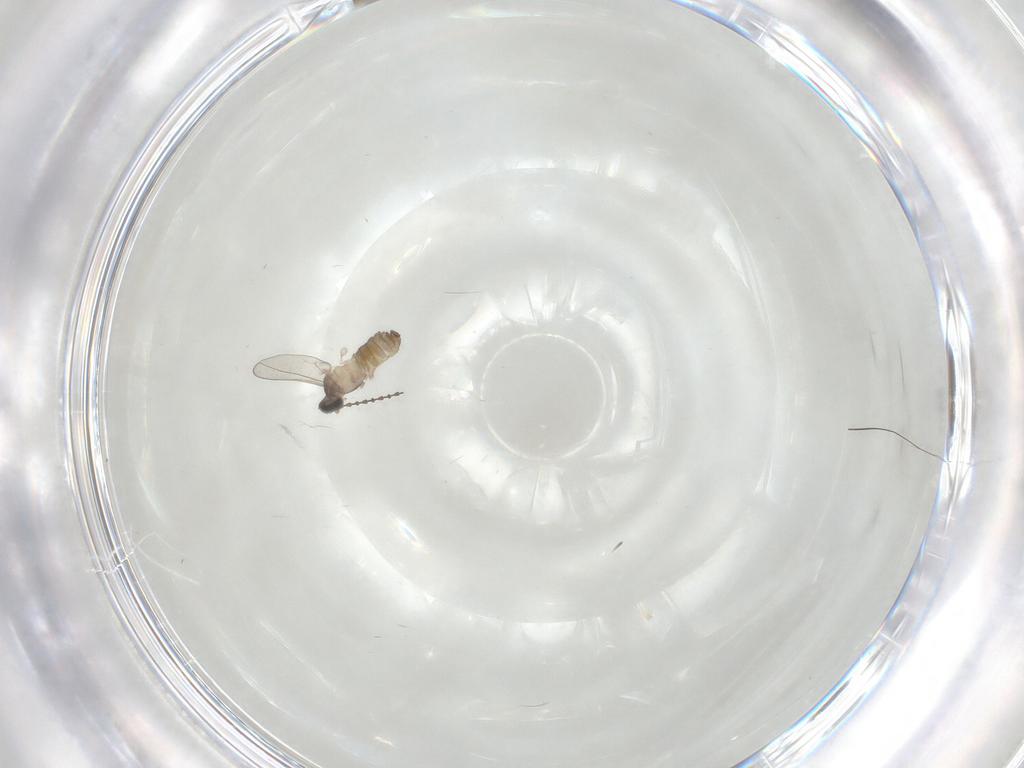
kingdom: Animalia
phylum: Arthropoda
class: Insecta
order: Diptera
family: Cecidomyiidae
